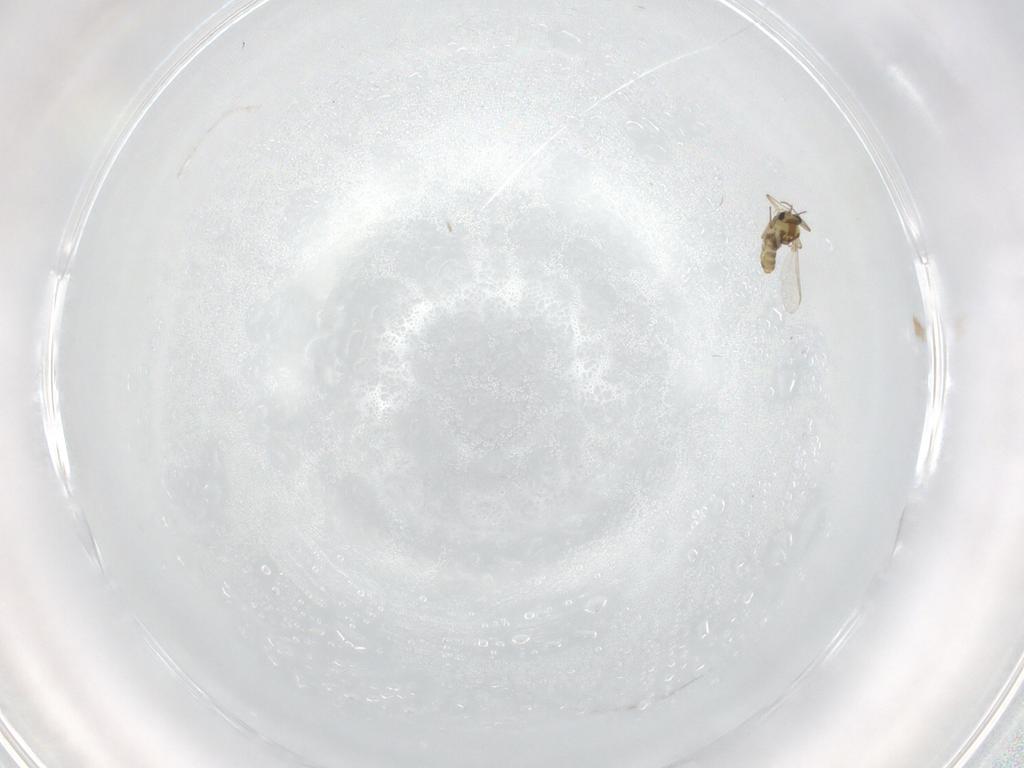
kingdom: Animalia
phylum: Arthropoda
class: Insecta
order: Diptera
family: Chironomidae
